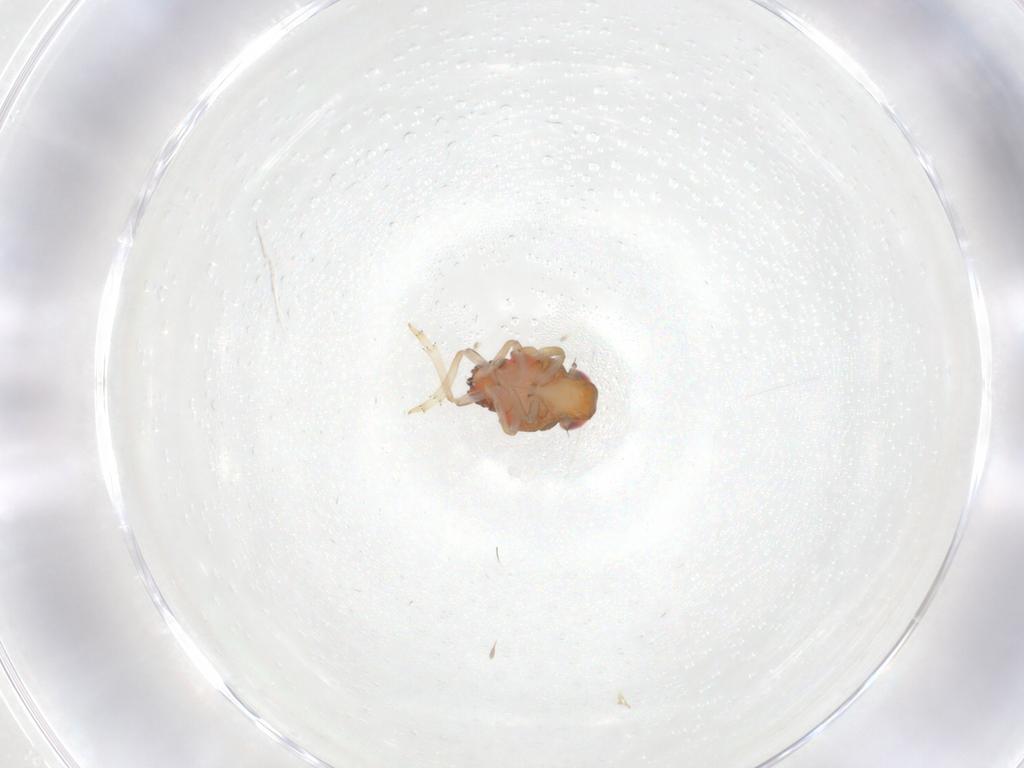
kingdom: Animalia
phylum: Arthropoda
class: Insecta
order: Hemiptera
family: Issidae
